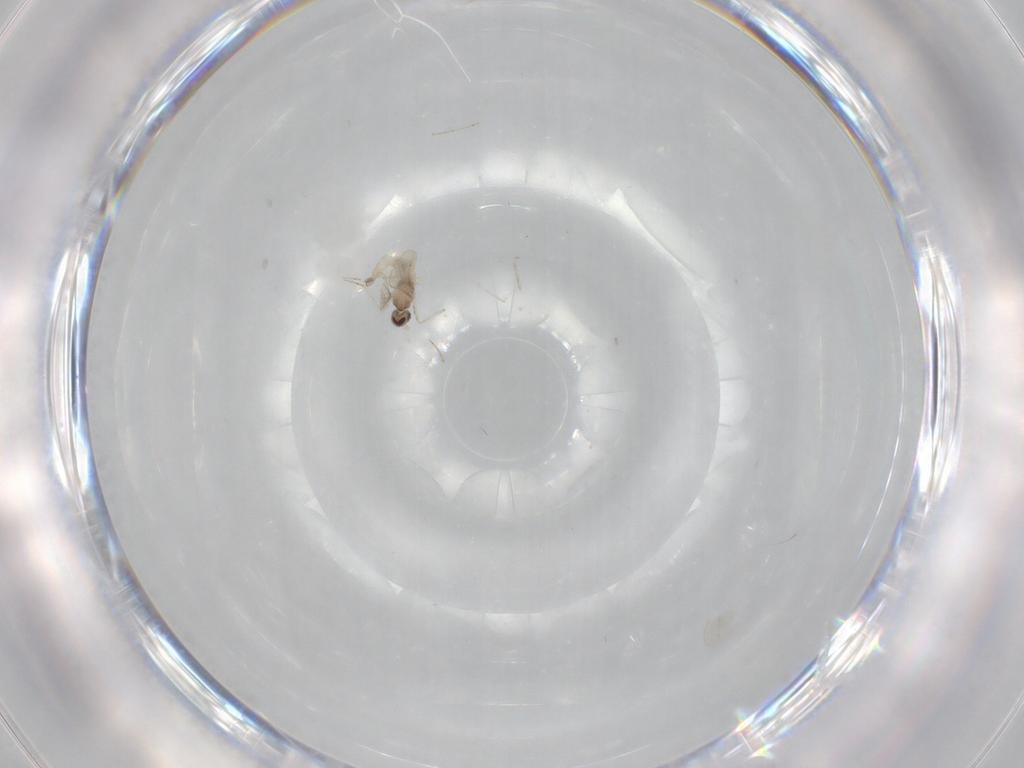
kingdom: Animalia
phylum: Arthropoda
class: Insecta
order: Diptera
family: Cecidomyiidae
